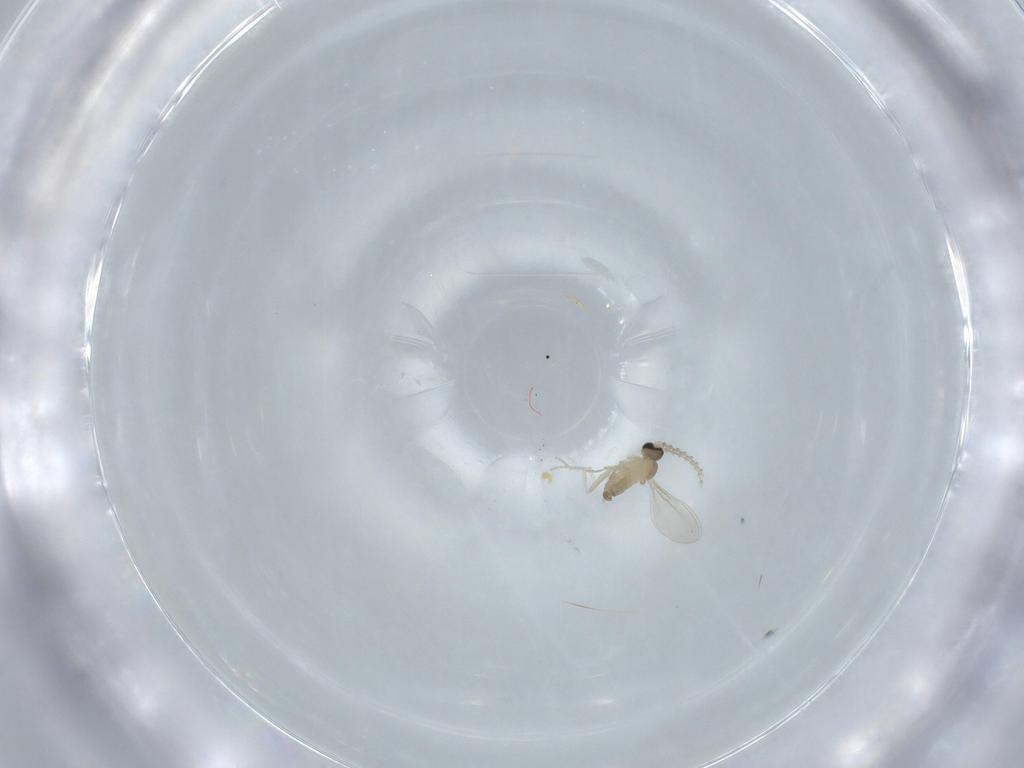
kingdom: Animalia
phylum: Arthropoda
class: Insecta
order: Diptera
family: Cecidomyiidae
